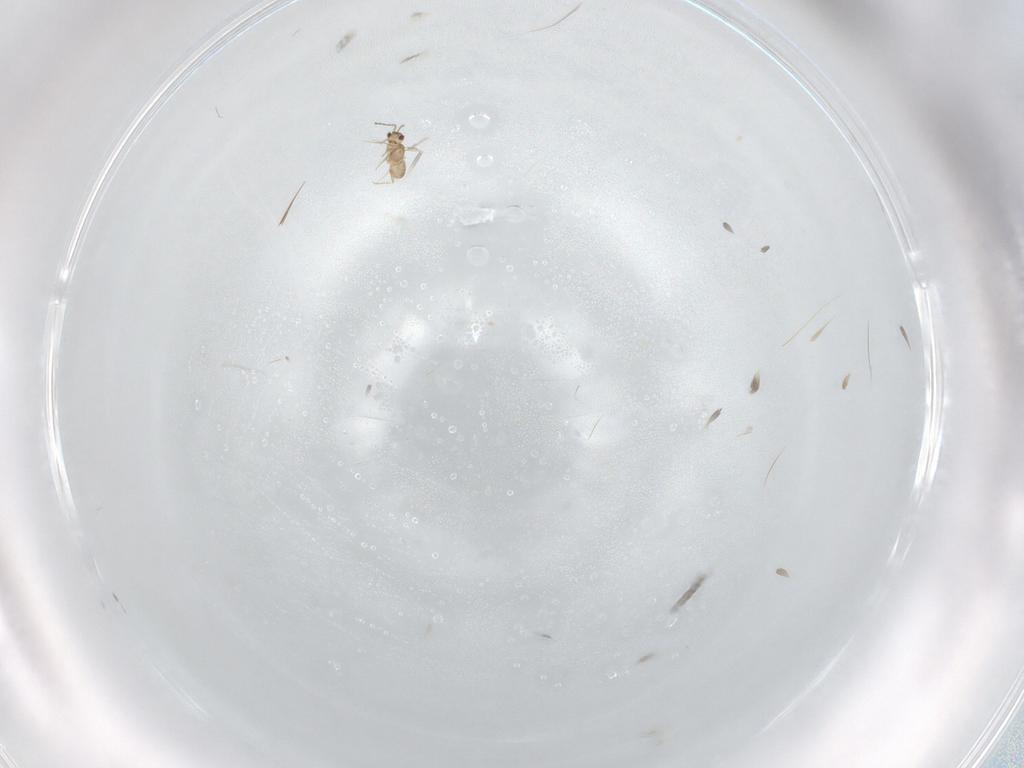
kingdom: Animalia
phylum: Arthropoda
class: Insecta
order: Hymenoptera
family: Mymaridae
